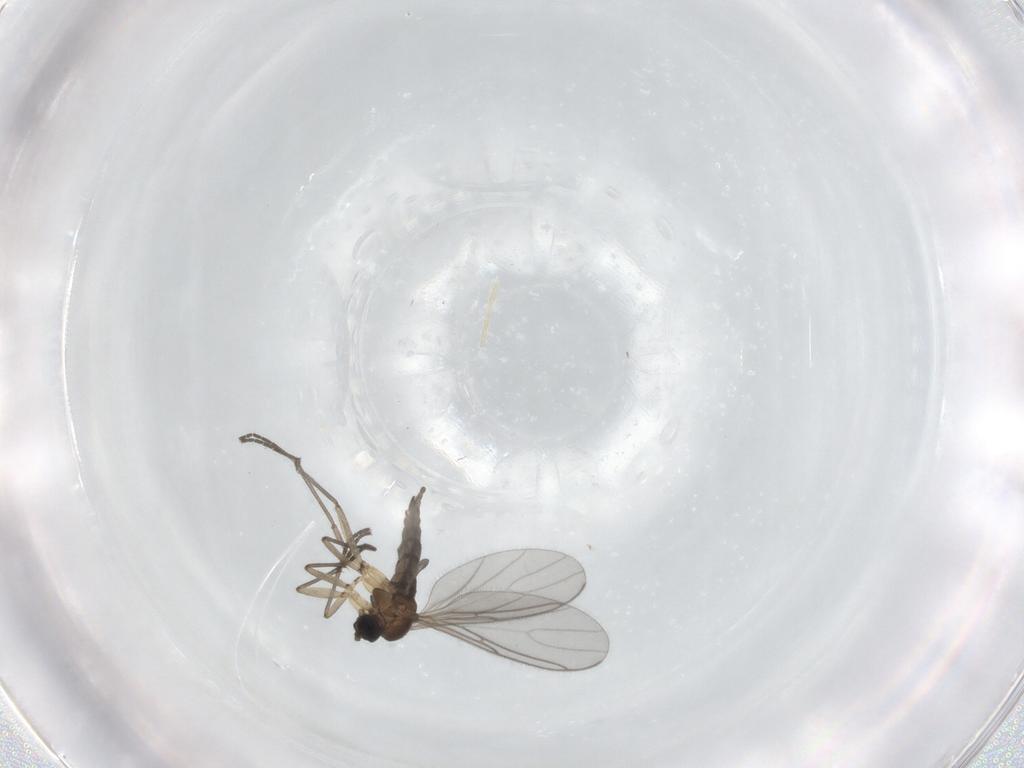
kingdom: Animalia
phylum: Arthropoda
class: Insecta
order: Diptera
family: Sciaridae
